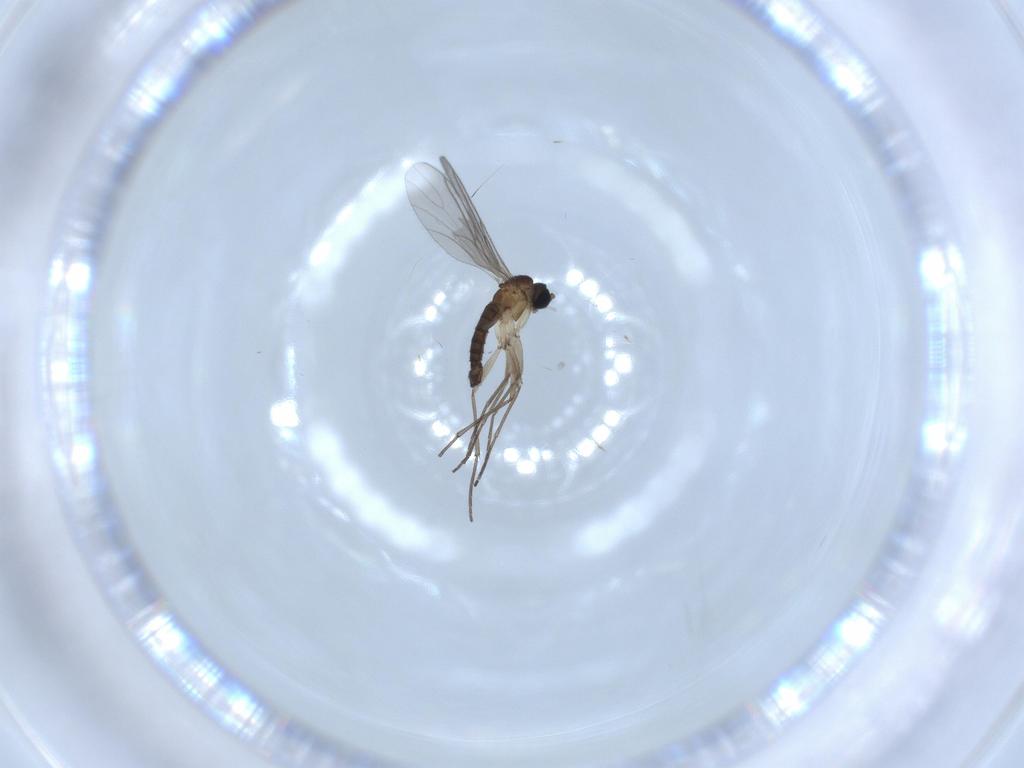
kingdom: Animalia
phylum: Arthropoda
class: Insecta
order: Diptera
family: Sciaridae
